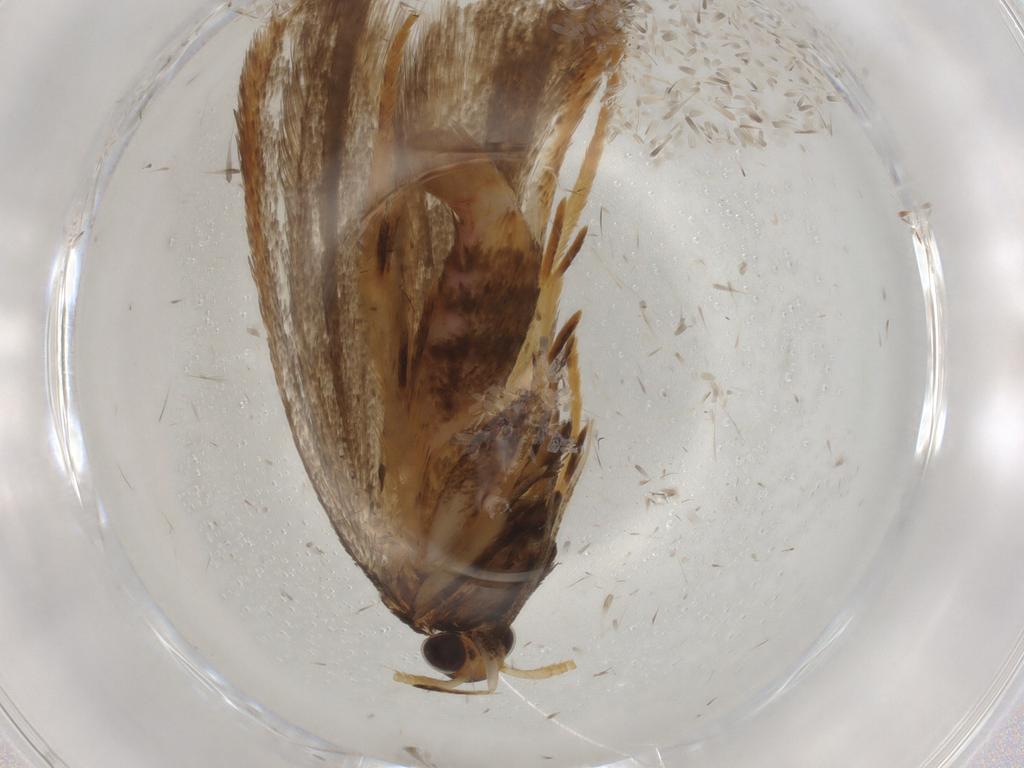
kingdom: Animalia
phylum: Arthropoda
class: Insecta
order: Lepidoptera
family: Lecithoceridae
